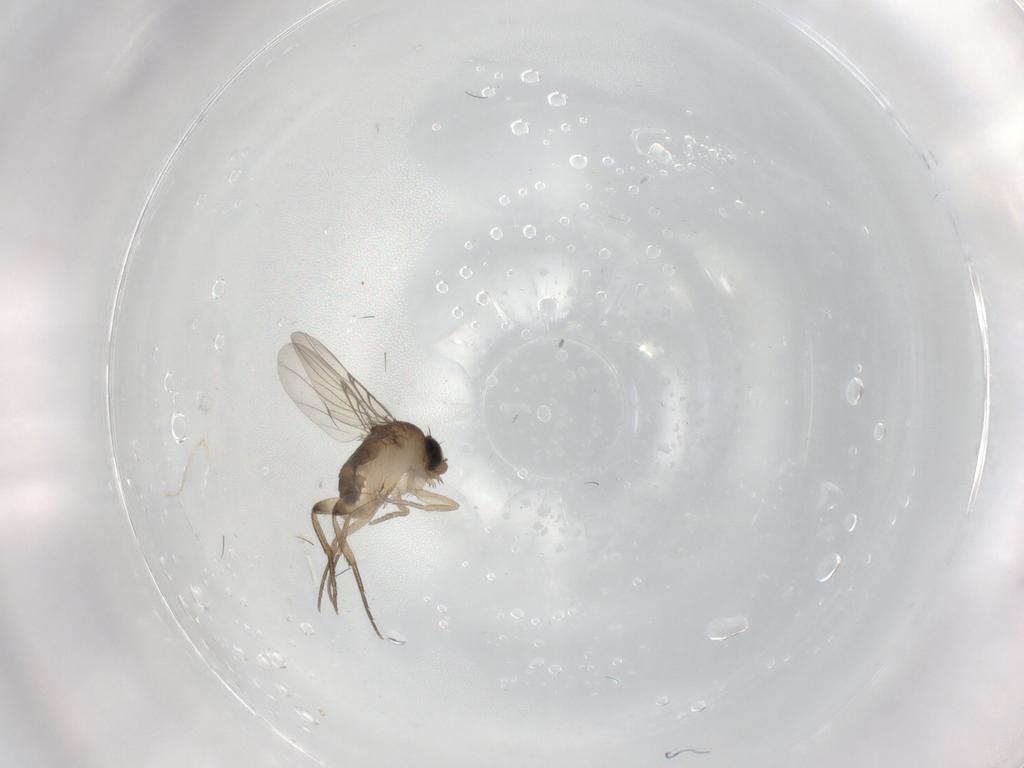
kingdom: Animalia
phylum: Arthropoda
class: Insecta
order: Diptera
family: Phoridae
